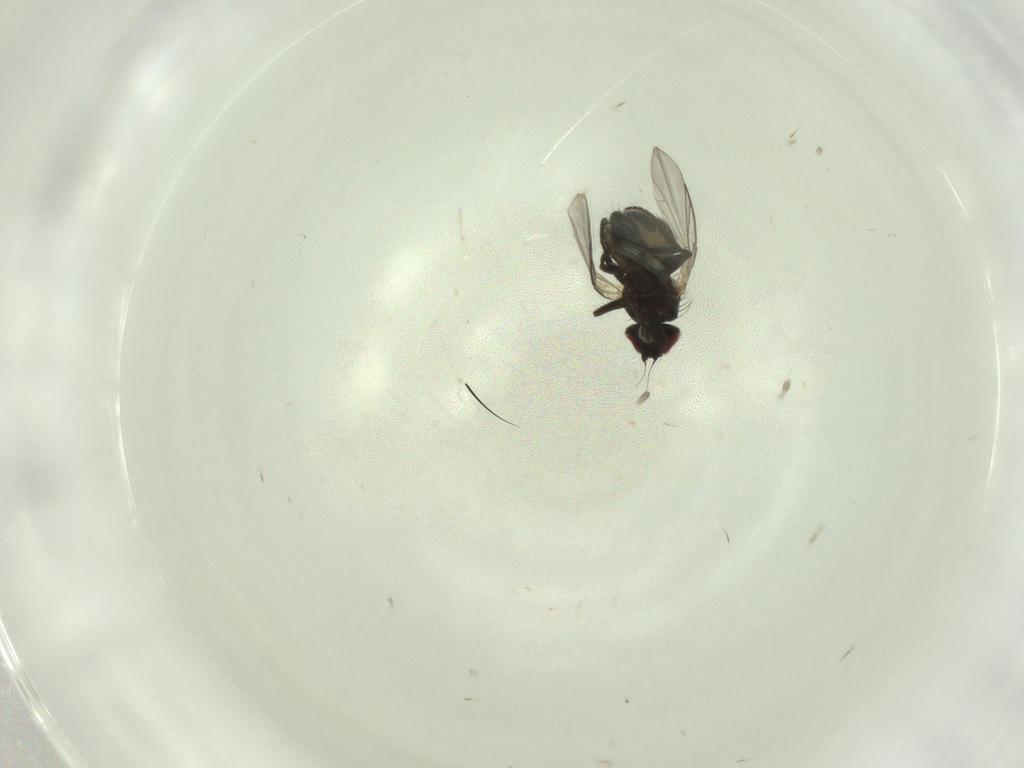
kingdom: Animalia
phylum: Arthropoda
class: Insecta
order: Diptera
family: Agromyzidae
